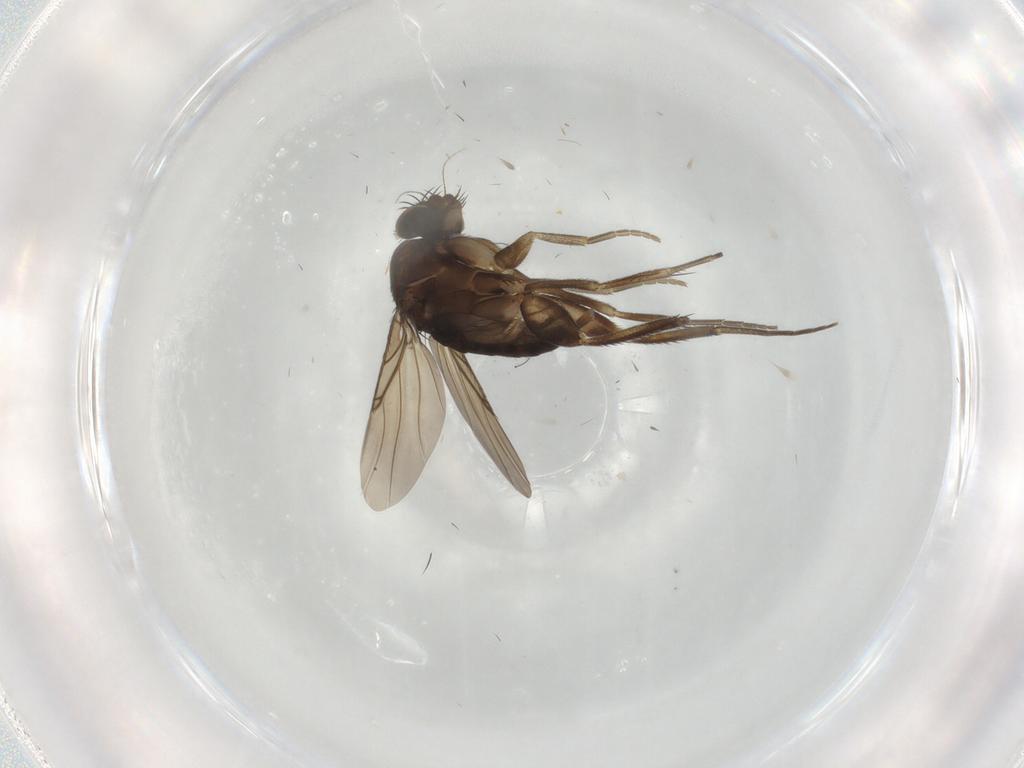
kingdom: Animalia
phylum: Arthropoda
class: Insecta
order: Diptera
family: Phoridae
